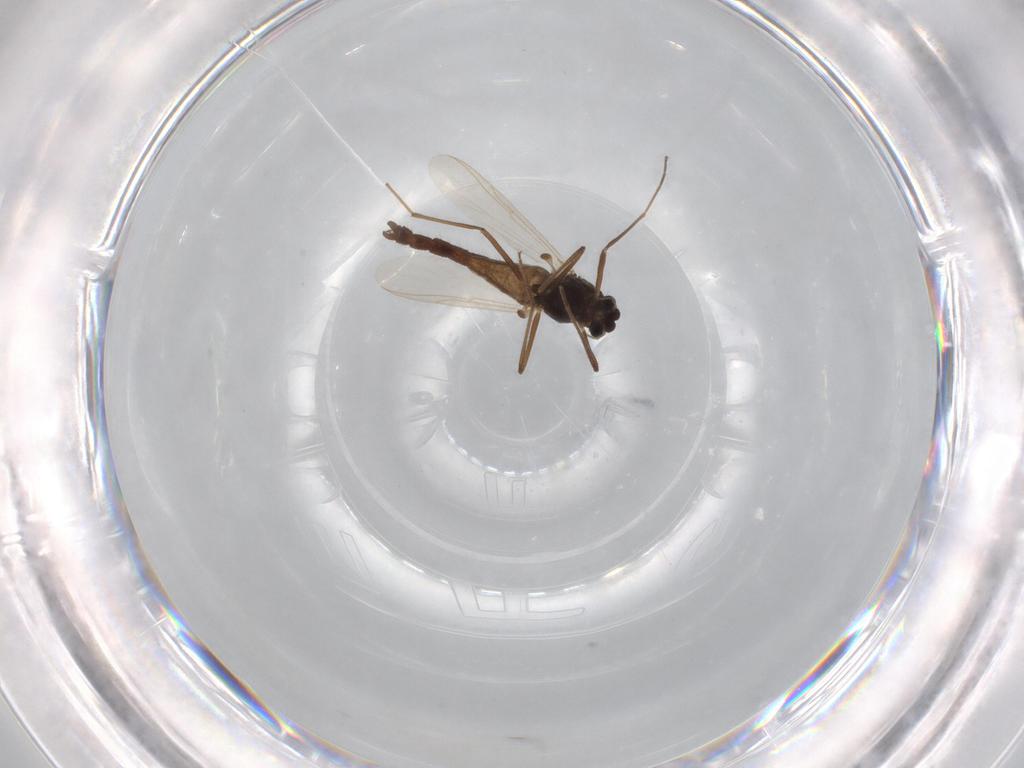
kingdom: Animalia
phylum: Arthropoda
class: Insecta
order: Diptera
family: Chironomidae
